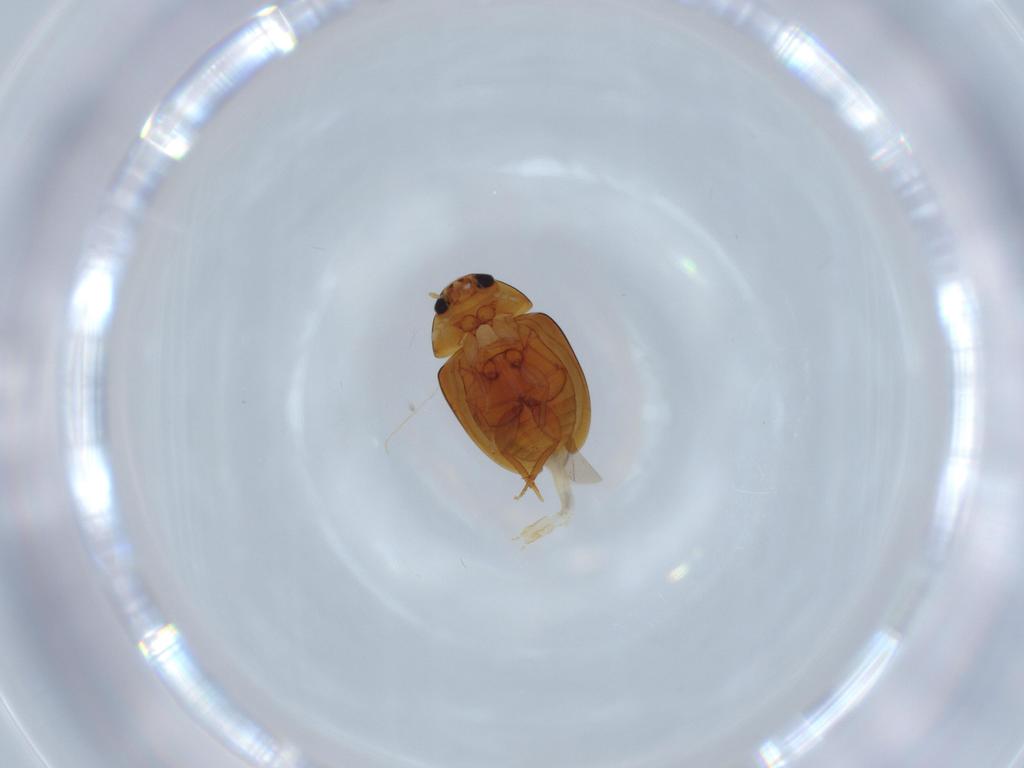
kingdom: Animalia
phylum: Arthropoda
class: Insecta
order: Coleoptera
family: Phalacridae
